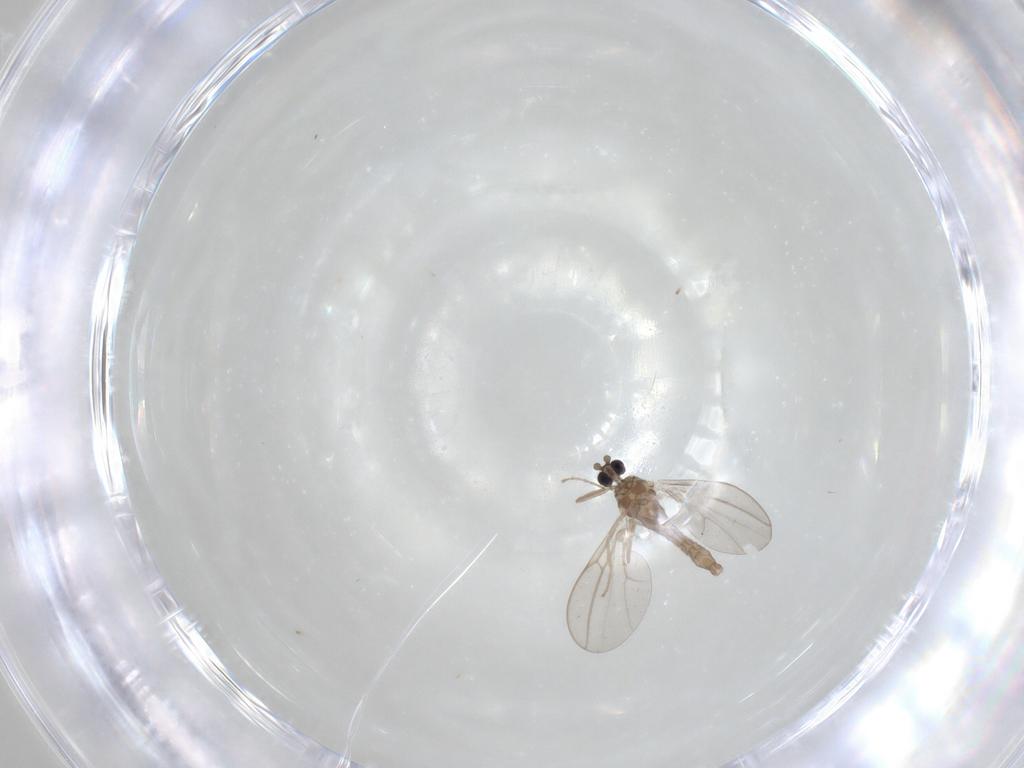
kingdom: Animalia
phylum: Arthropoda
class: Insecta
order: Diptera
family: Cecidomyiidae
